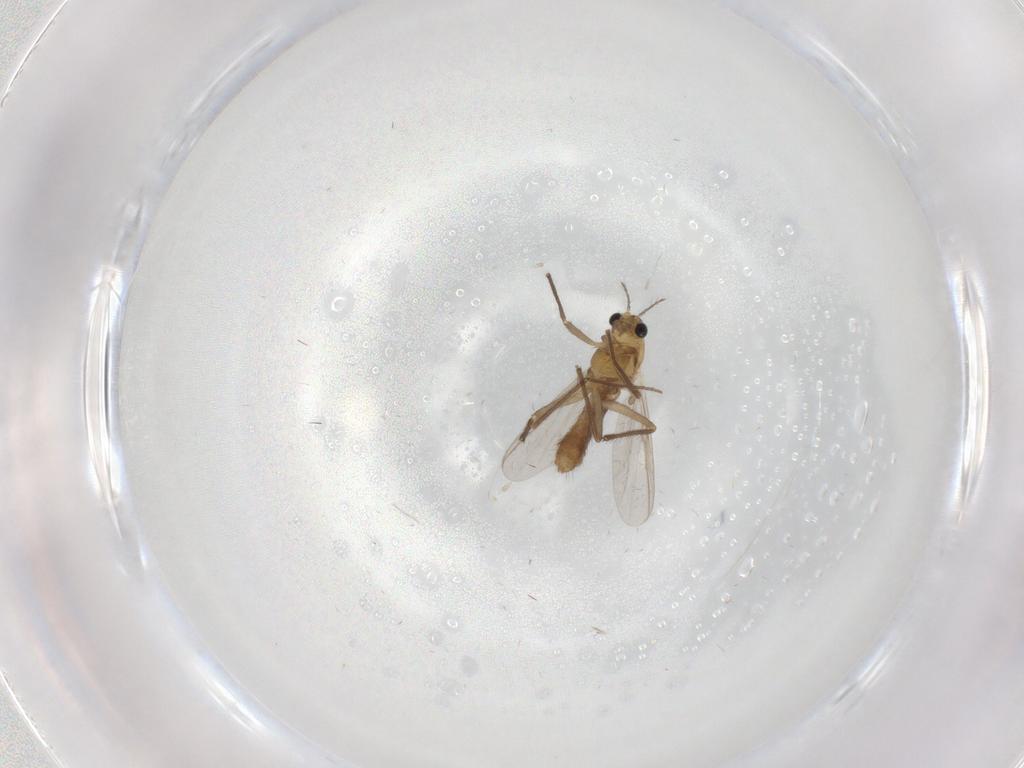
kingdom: Animalia
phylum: Arthropoda
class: Insecta
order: Diptera
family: Chironomidae
